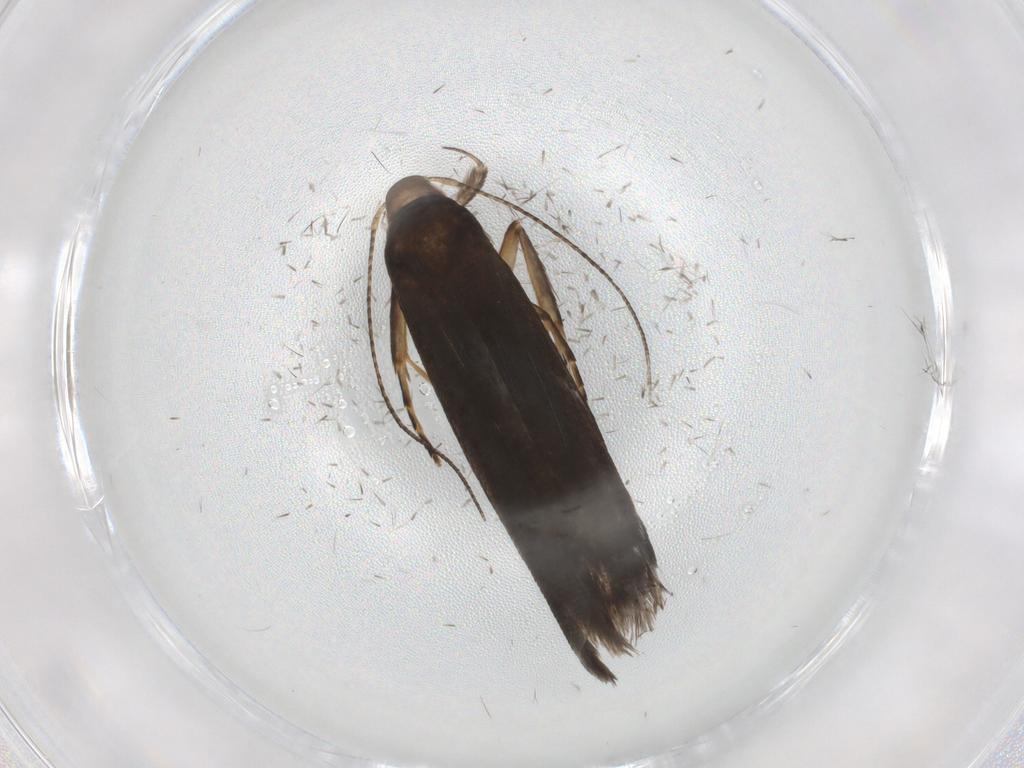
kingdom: Animalia
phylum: Arthropoda
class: Insecta
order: Lepidoptera
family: Gelechiidae
